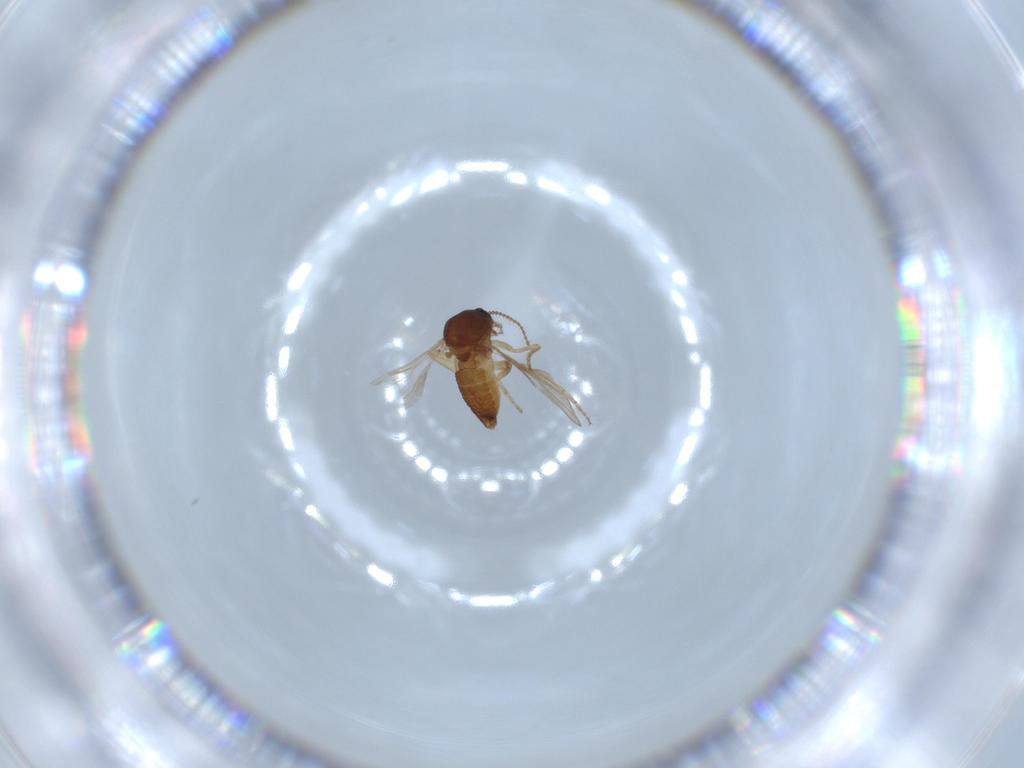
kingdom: Animalia
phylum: Arthropoda
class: Insecta
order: Diptera
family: Ceratopogonidae
